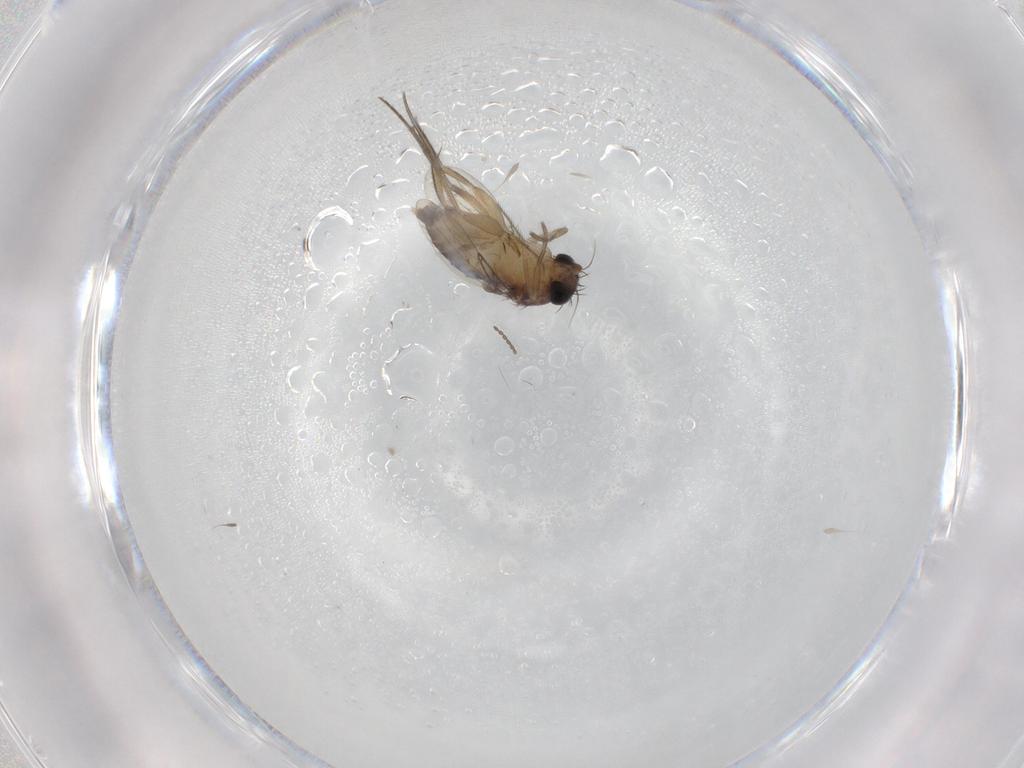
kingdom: Animalia
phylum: Arthropoda
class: Insecta
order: Diptera
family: Phoridae
